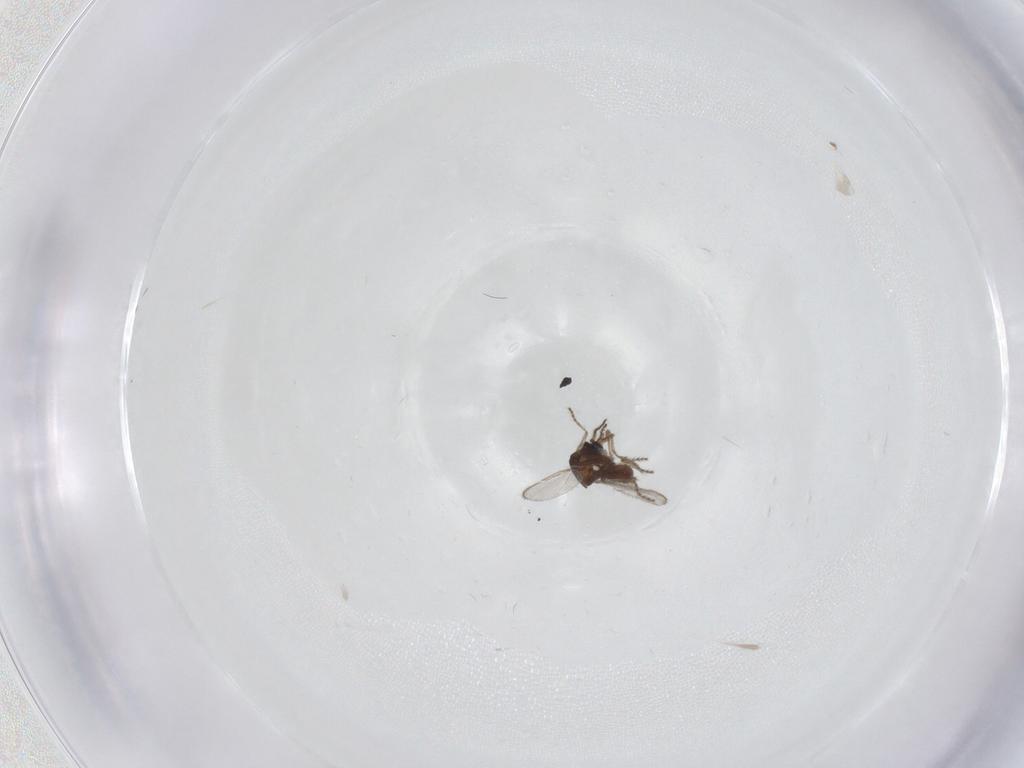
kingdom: Animalia
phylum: Arthropoda
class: Insecta
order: Diptera
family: Ceratopogonidae
